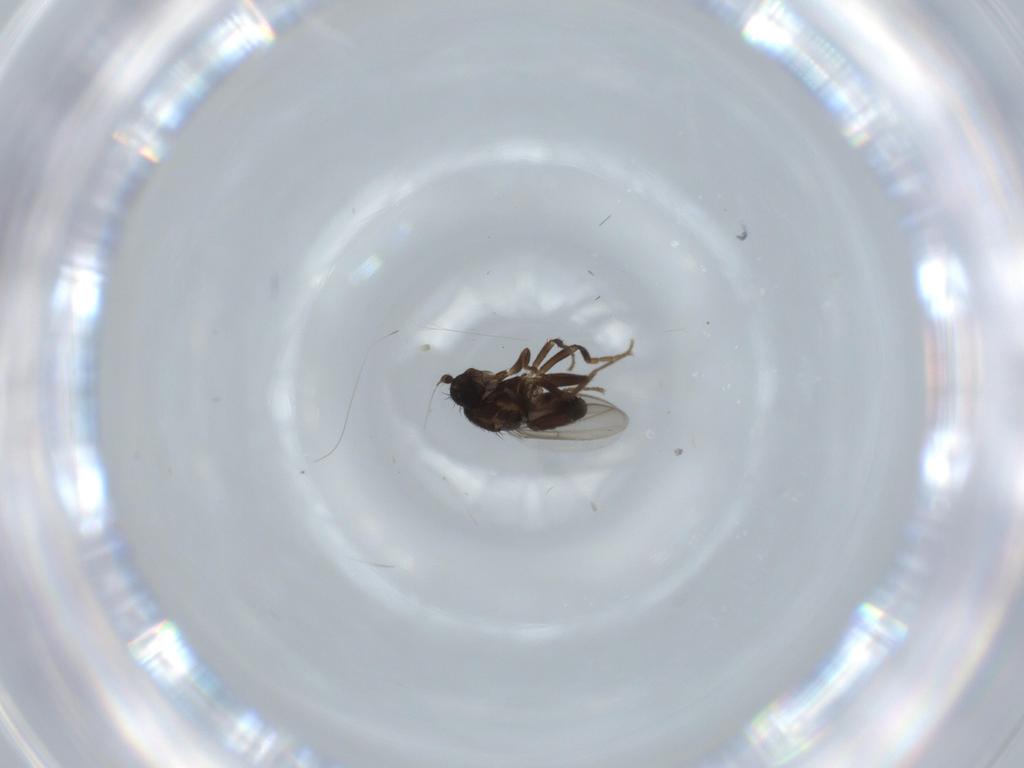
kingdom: Animalia
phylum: Arthropoda
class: Insecta
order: Diptera
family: Sphaeroceridae
